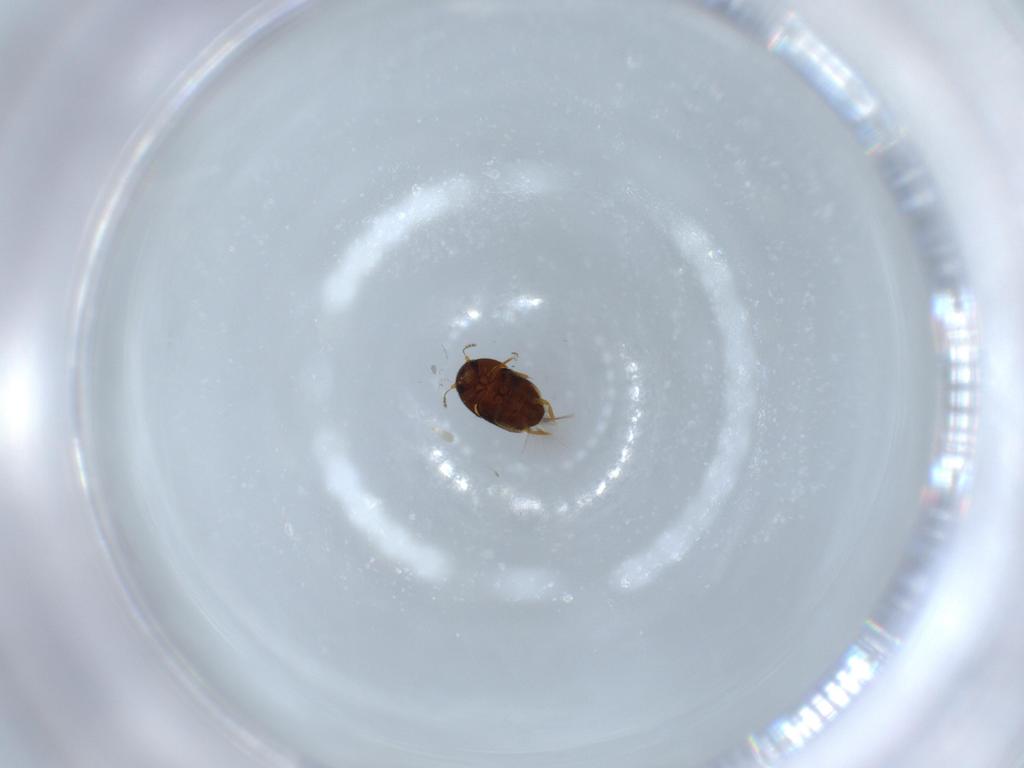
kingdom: Animalia
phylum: Arthropoda
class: Insecta
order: Coleoptera
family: Ptiliidae
